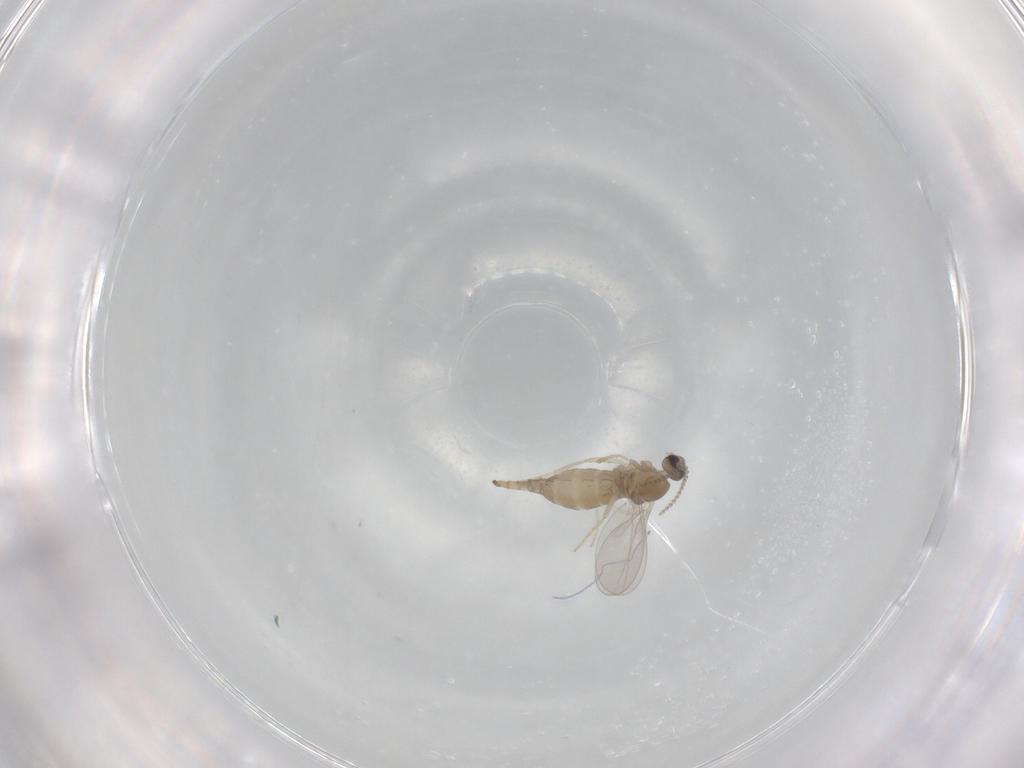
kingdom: Animalia
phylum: Arthropoda
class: Insecta
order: Diptera
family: Cecidomyiidae
